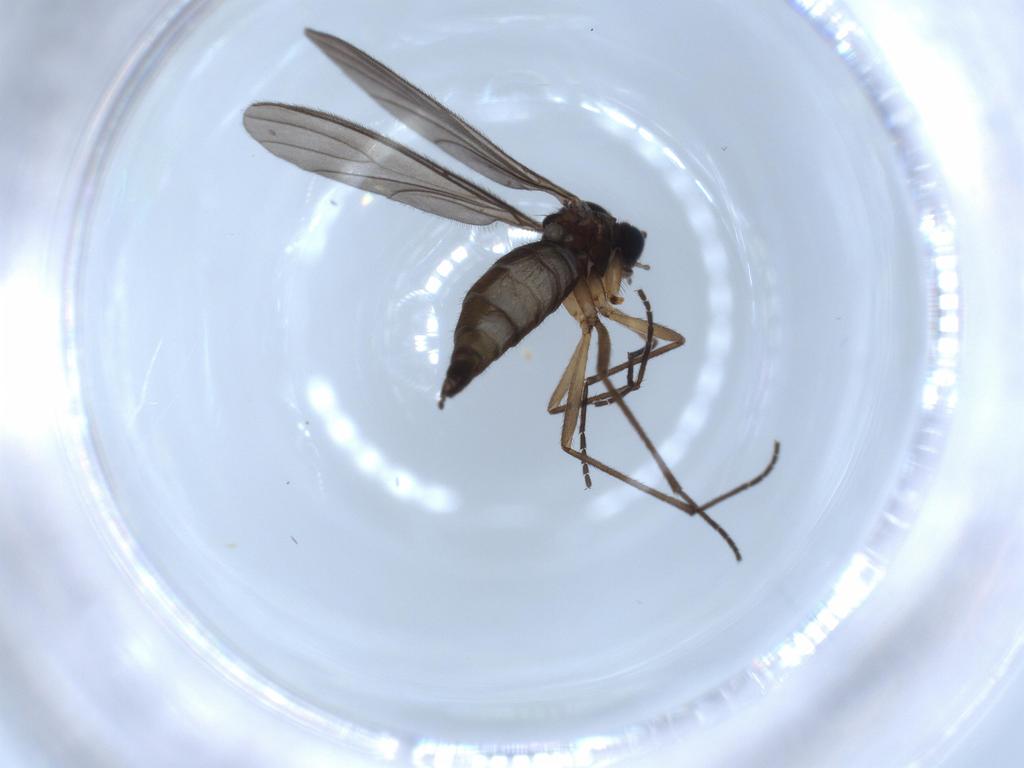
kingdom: Animalia
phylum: Arthropoda
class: Insecta
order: Diptera
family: Sciaridae
